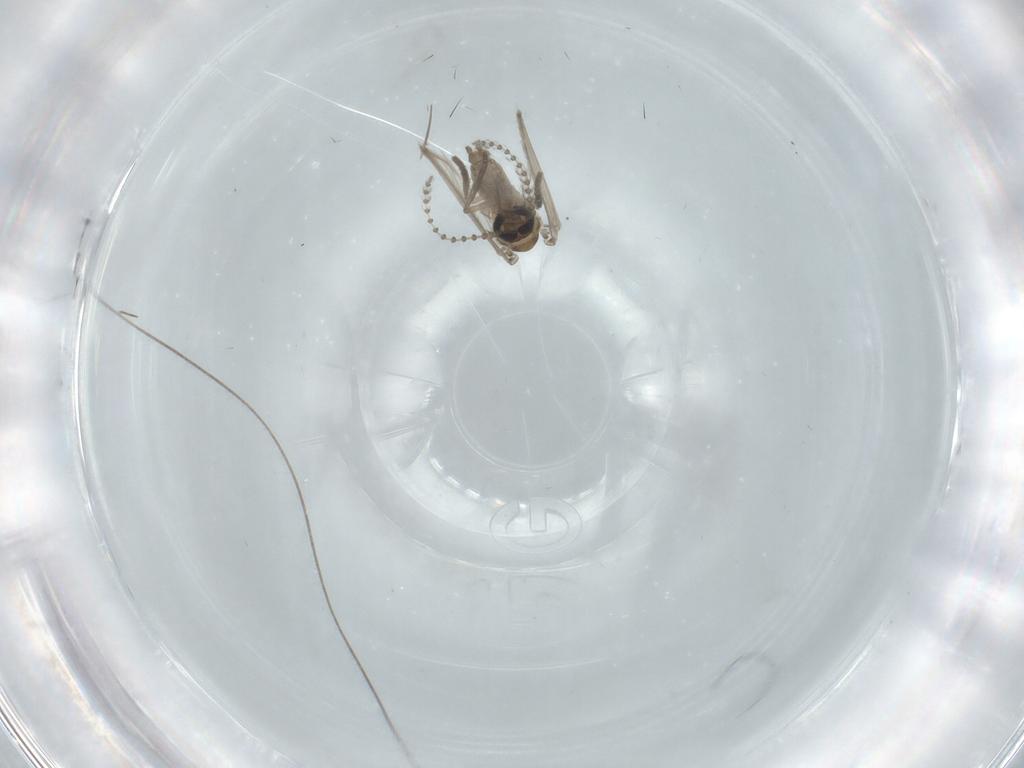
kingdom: Animalia
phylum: Arthropoda
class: Insecta
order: Diptera
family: Psychodidae
